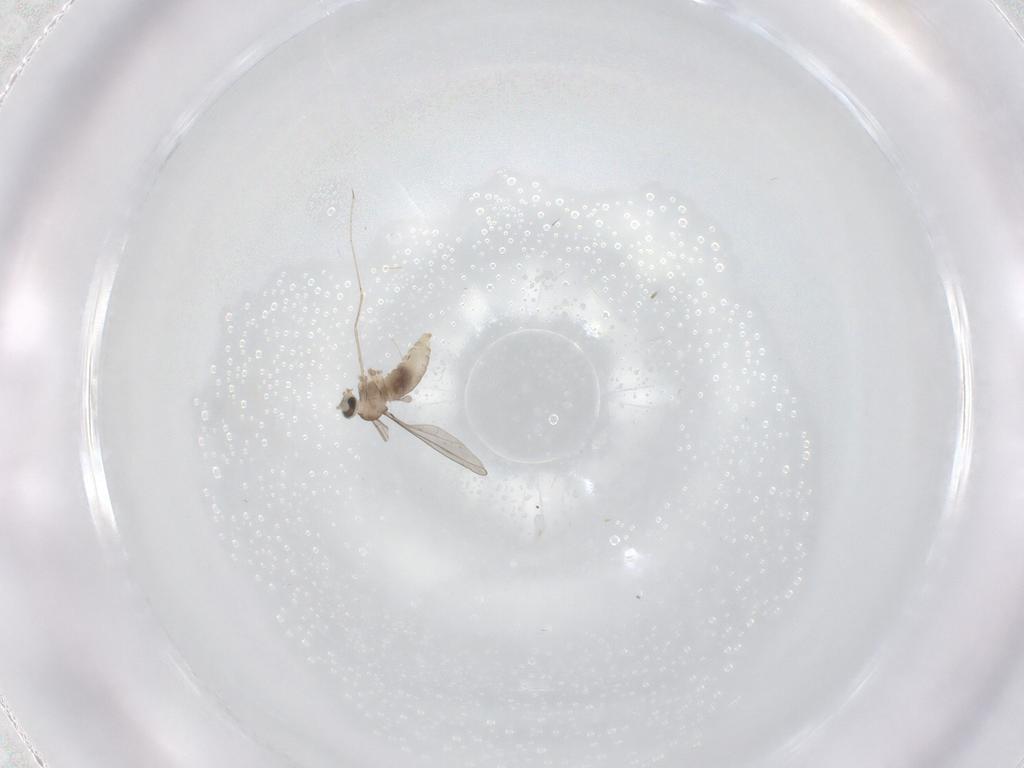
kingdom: Animalia
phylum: Arthropoda
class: Insecta
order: Diptera
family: Cecidomyiidae
